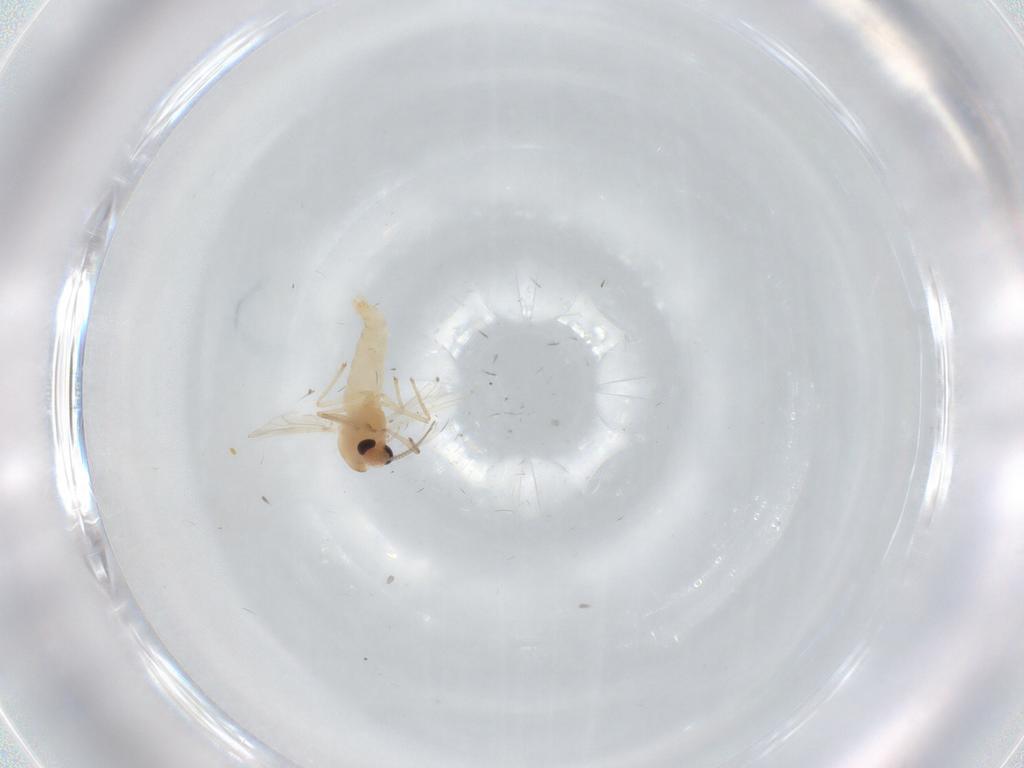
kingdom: Animalia
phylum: Arthropoda
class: Insecta
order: Diptera
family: Chironomidae
